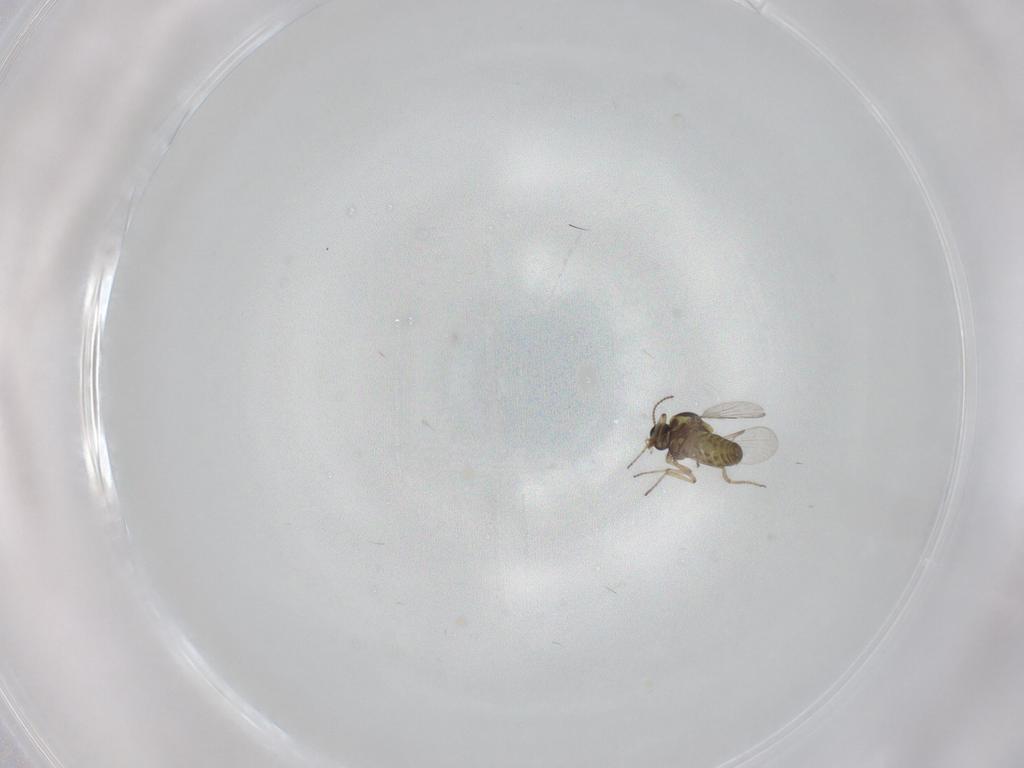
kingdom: Animalia
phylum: Arthropoda
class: Insecta
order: Diptera
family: Ceratopogonidae
